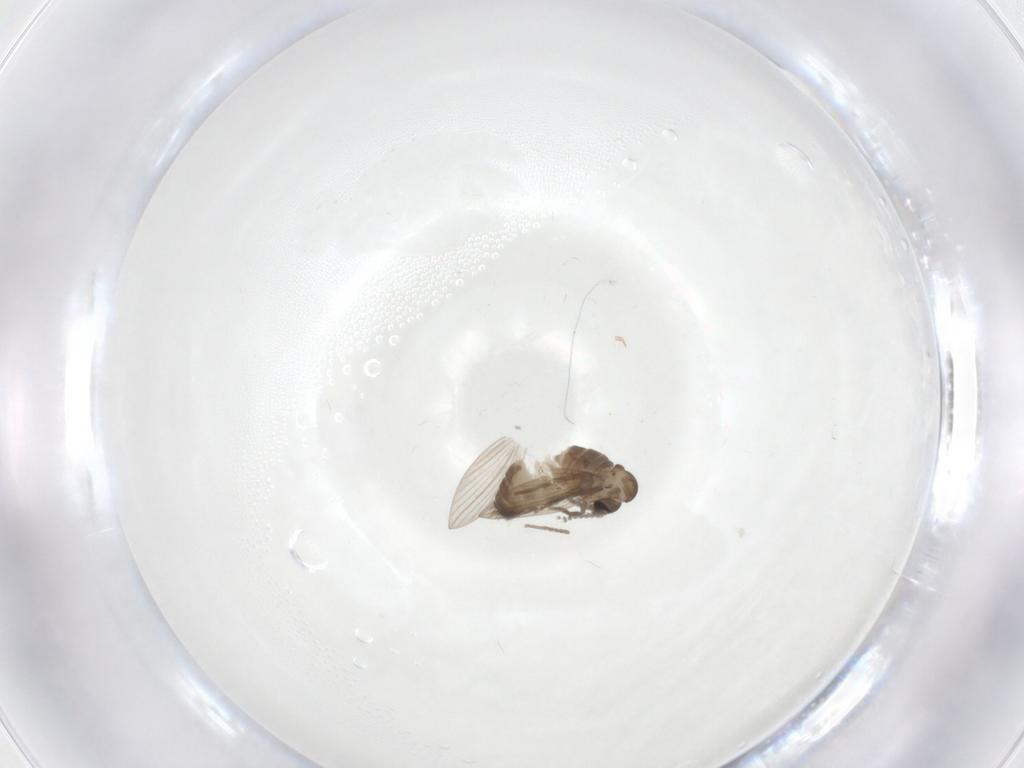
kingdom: Animalia
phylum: Arthropoda
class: Insecta
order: Diptera
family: Psychodidae
